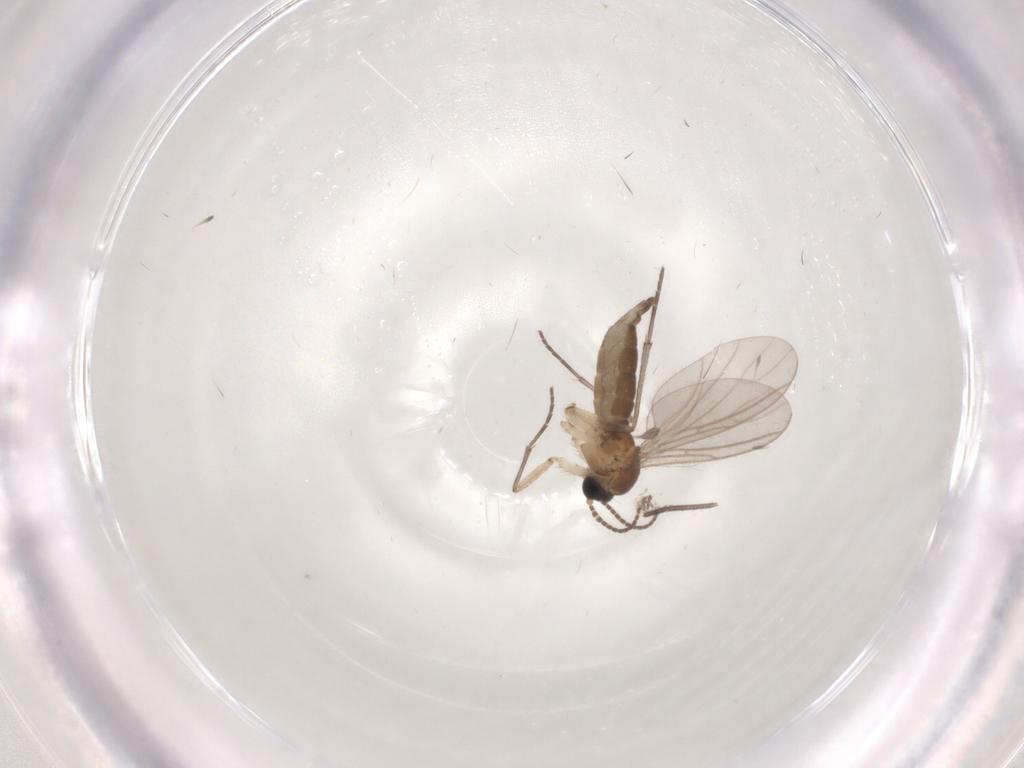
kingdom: Animalia
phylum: Arthropoda
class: Insecta
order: Diptera
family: Sciaridae
